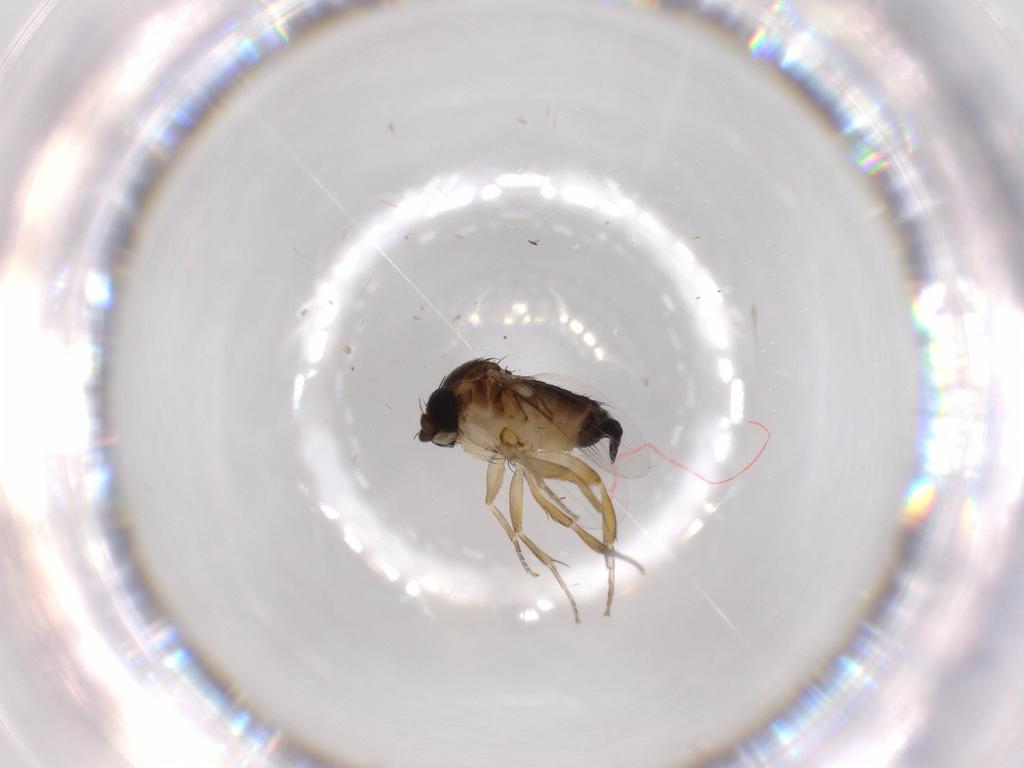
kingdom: Animalia
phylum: Arthropoda
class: Insecta
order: Diptera
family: Phoridae
